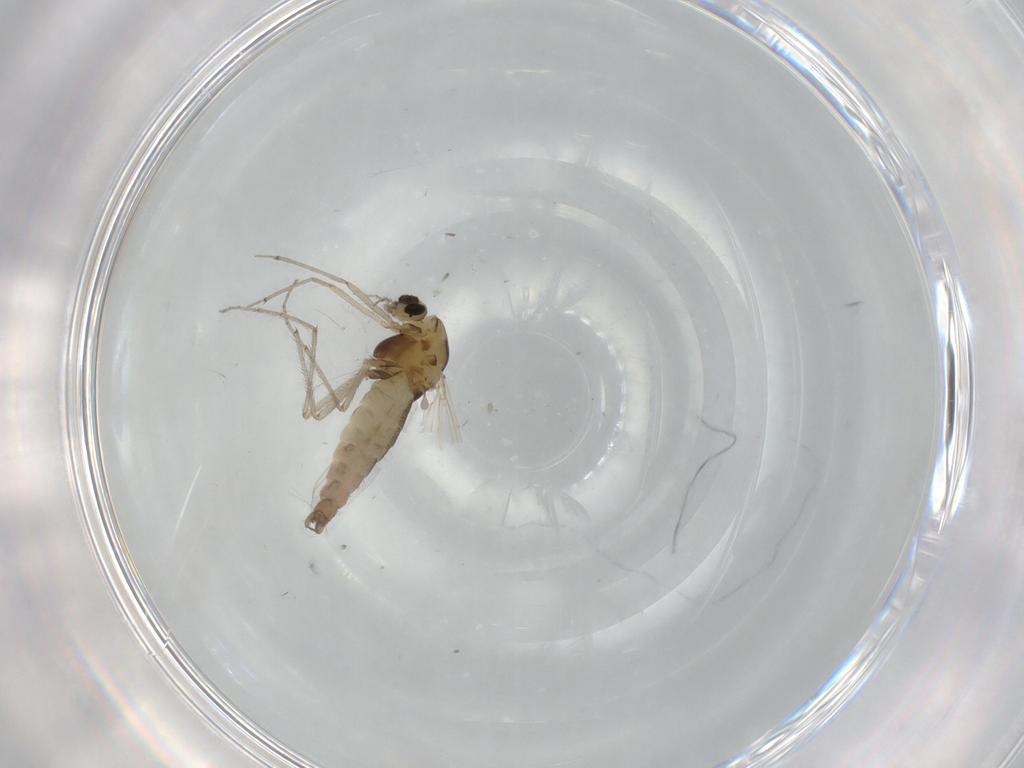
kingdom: Animalia
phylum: Arthropoda
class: Insecta
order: Diptera
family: Chironomidae
